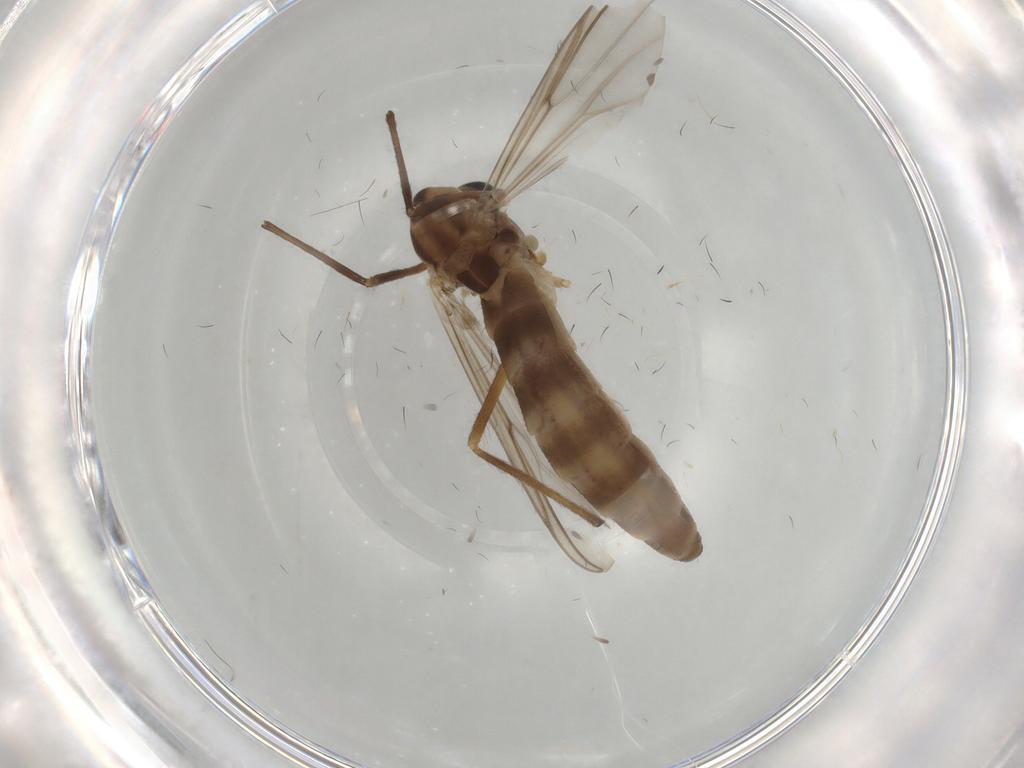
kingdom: Animalia
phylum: Arthropoda
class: Insecta
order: Diptera
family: Chironomidae
